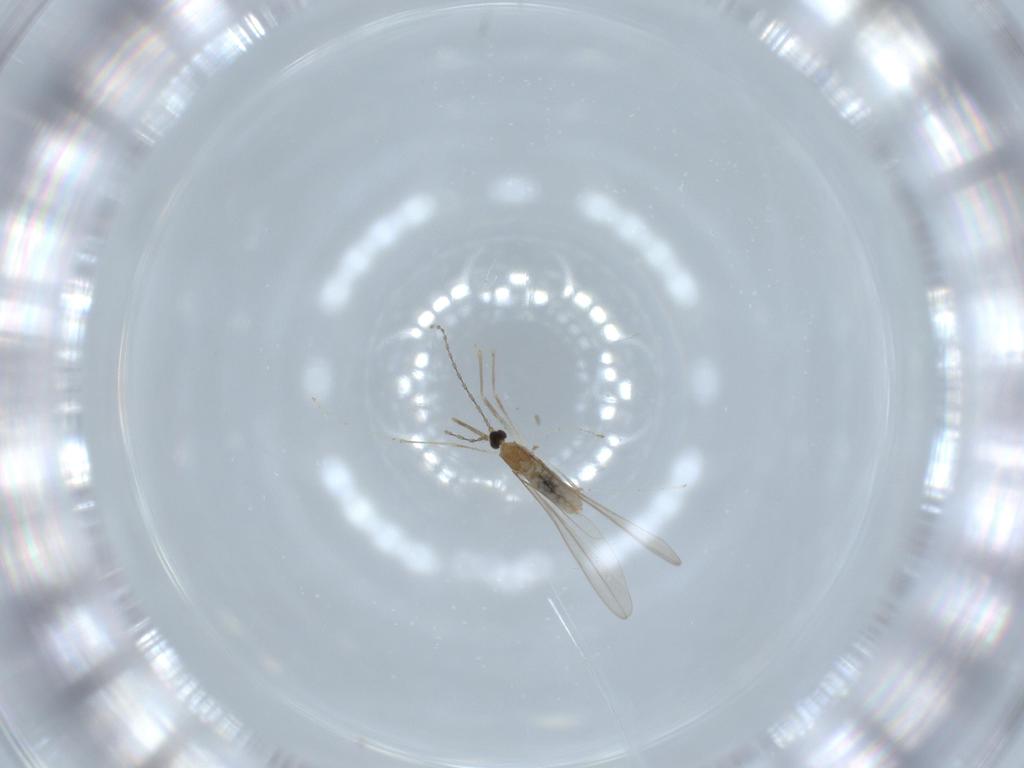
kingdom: Animalia
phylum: Arthropoda
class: Insecta
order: Diptera
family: Cecidomyiidae
